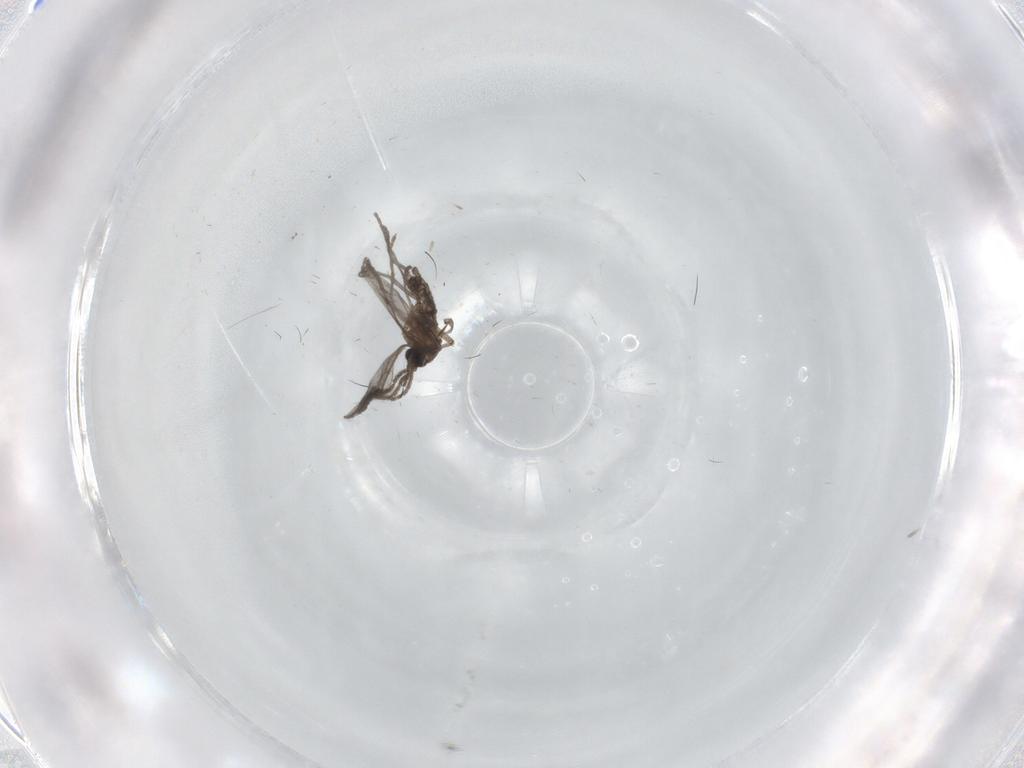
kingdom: Animalia
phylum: Arthropoda
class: Insecta
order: Diptera
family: Sciaridae
